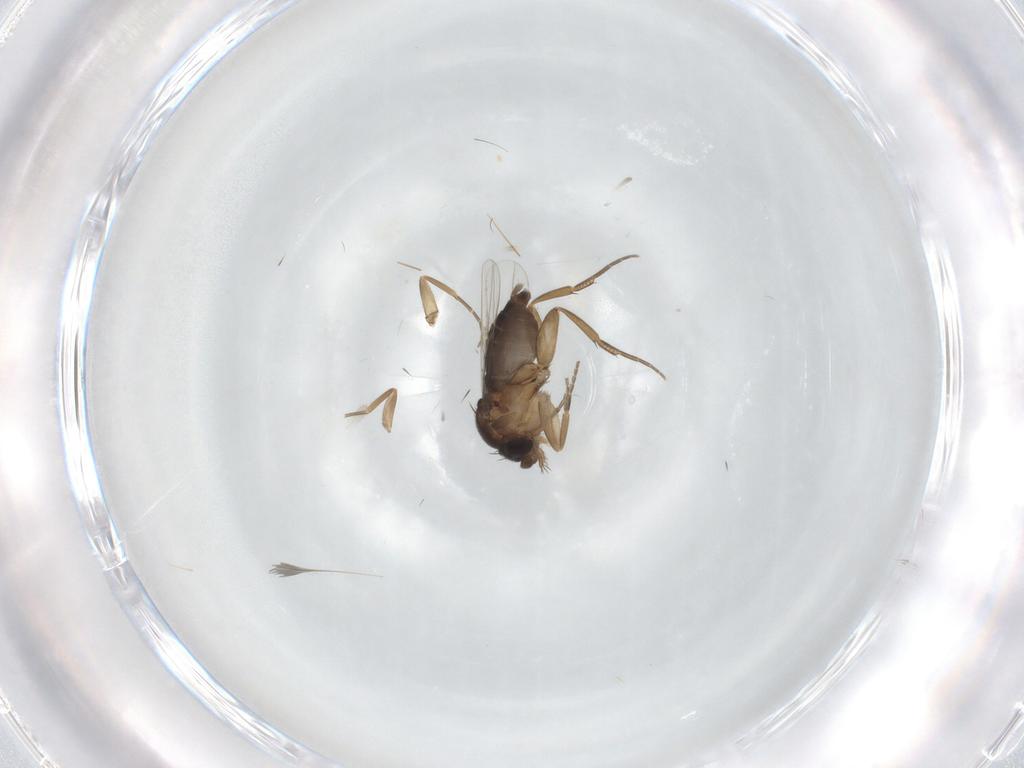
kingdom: Animalia
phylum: Arthropoda
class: Insecta
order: Diptera
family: Phoridae
